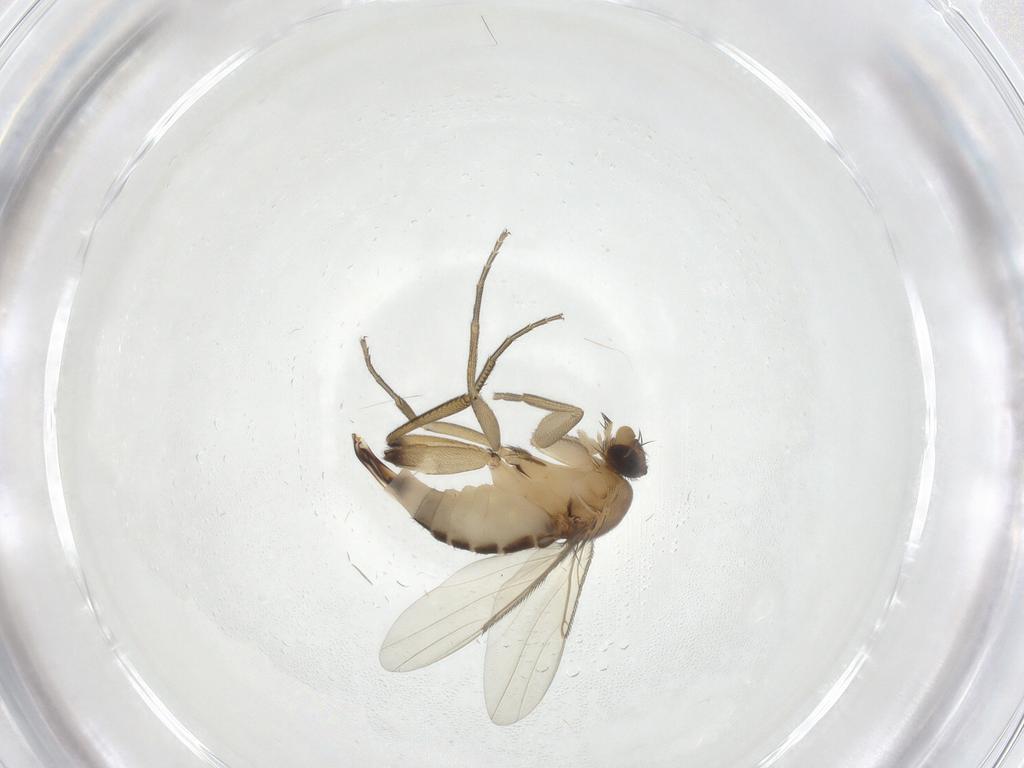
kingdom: Animalia
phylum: Arthropoda
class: Insecta
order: Diptera
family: Phoridae
